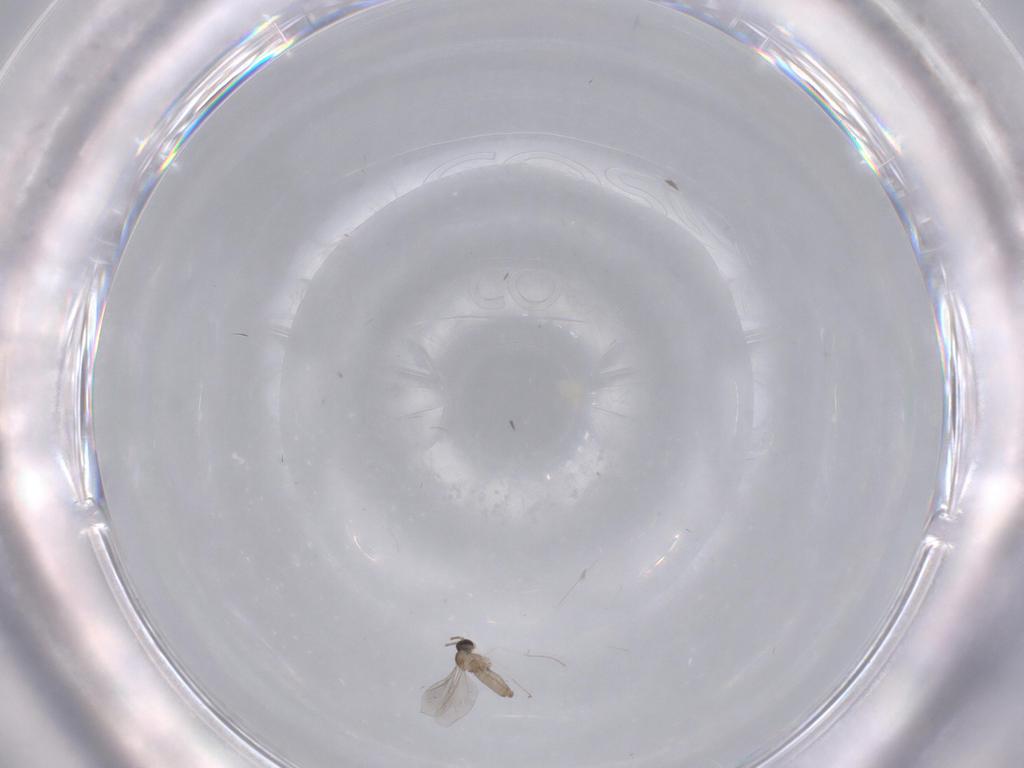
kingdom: Animalia
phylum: Arthropoda
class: Insecta
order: Diptera
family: Cecidomyiidae
